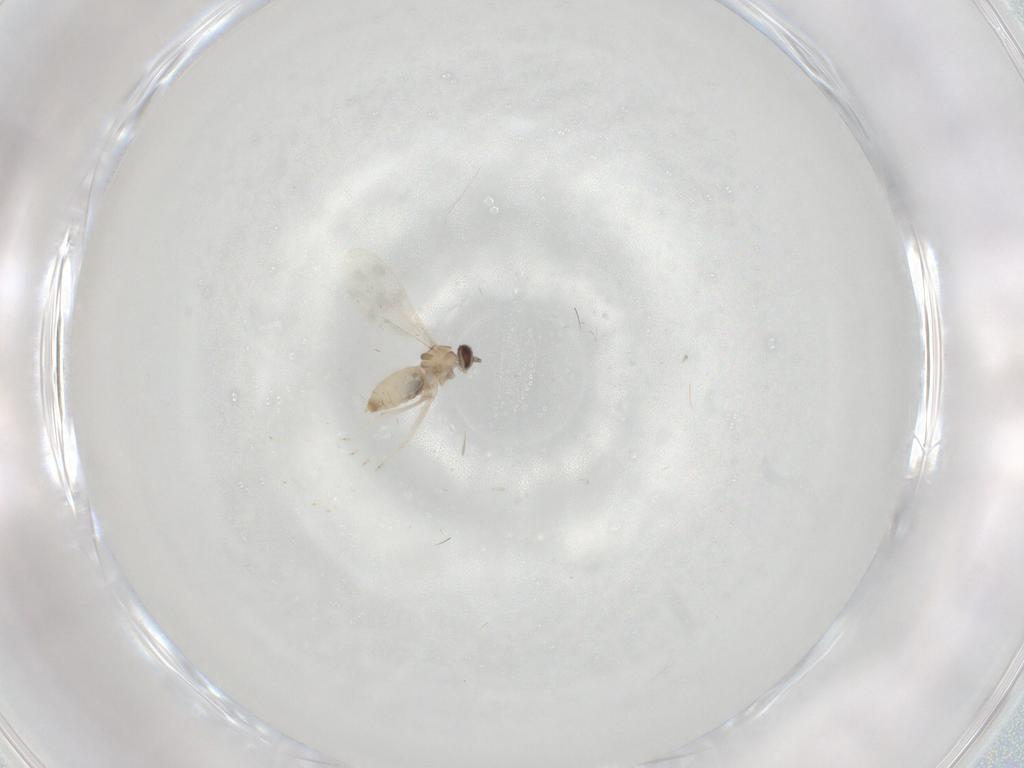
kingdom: Animalia
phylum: Arthropoda
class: Insecta
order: Diptera
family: Cecidomyiidae
